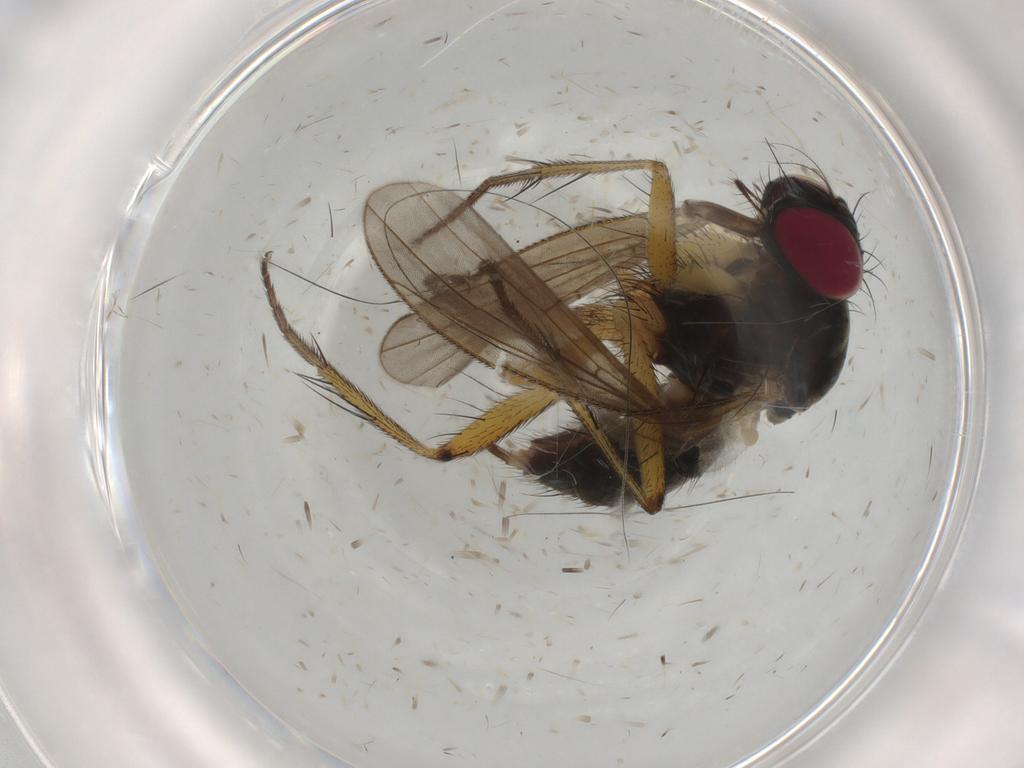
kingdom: Animalia
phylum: Arthropoda
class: Insecta
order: Diptera
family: Muscidae
